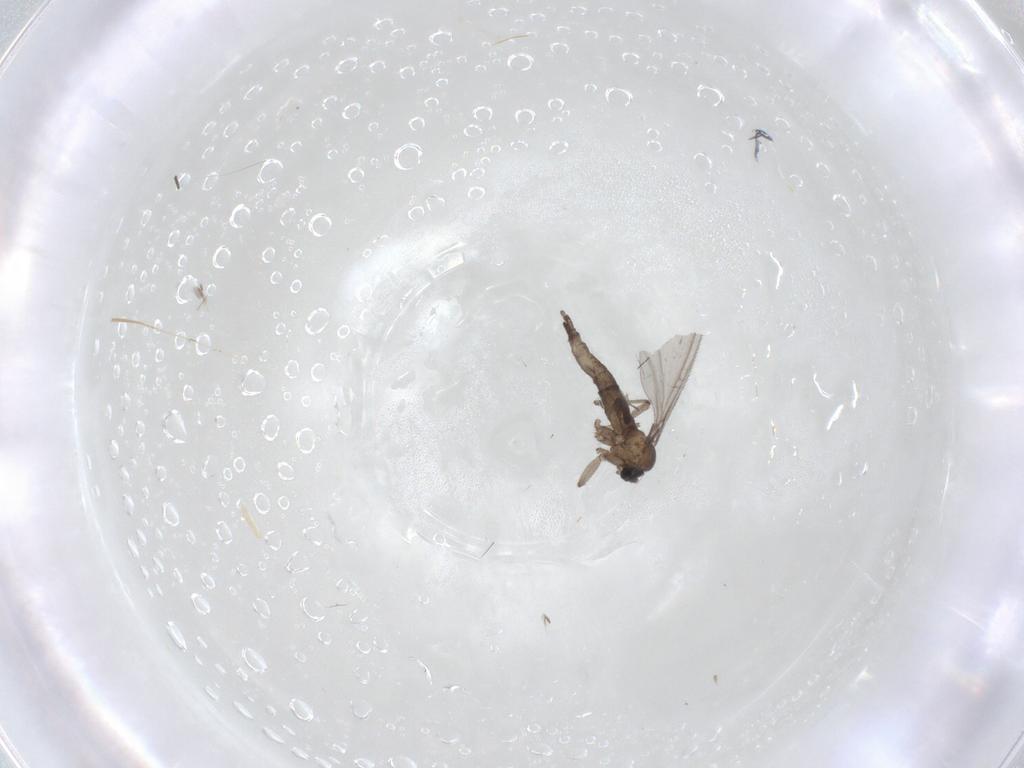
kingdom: Animalia
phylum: Arthropoda
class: Insecta
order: Diptera
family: Sciaridae
